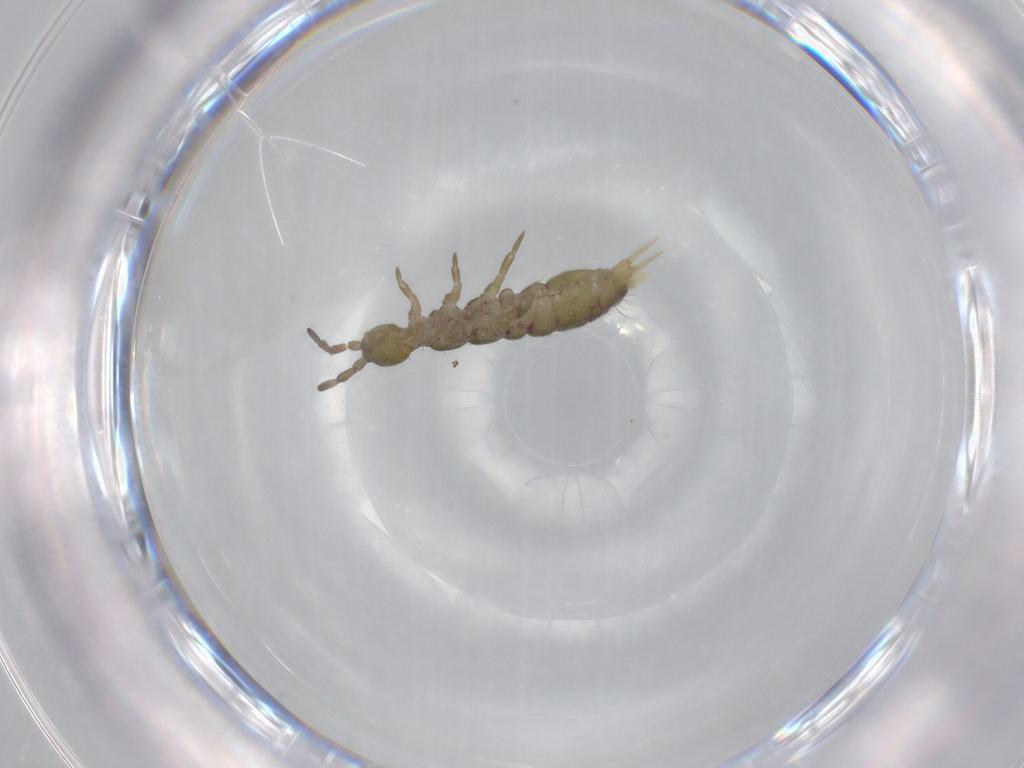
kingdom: Animalia
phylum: Arthropoda
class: Collembola
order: Entomobryomorpha
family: Isotomidae
